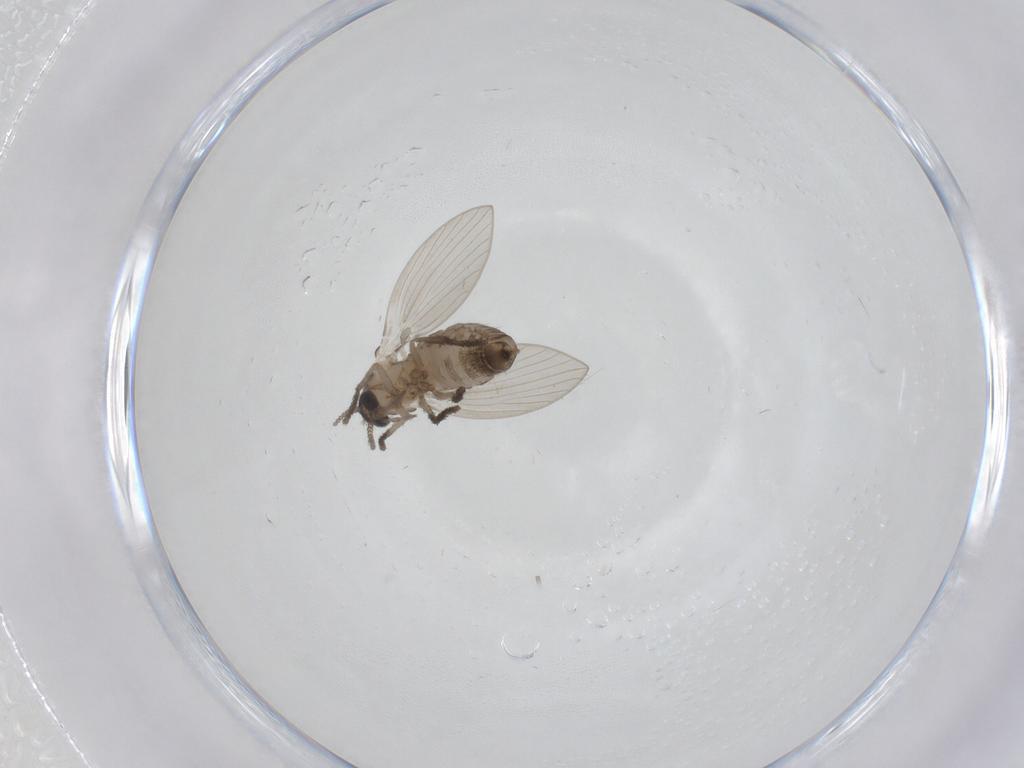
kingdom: Animalia
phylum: Arthropoda
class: Insecta
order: Diptera
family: Psychodidae
